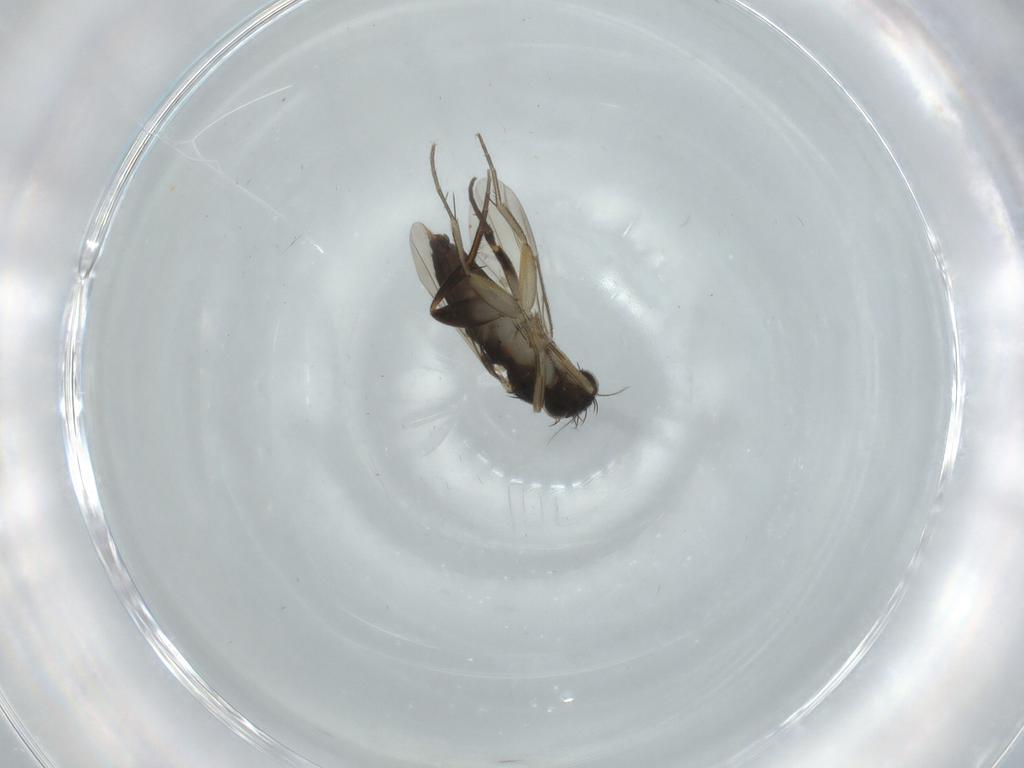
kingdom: Animalia
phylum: Arthropoda
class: Insecta
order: Diptera
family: Phoridae
